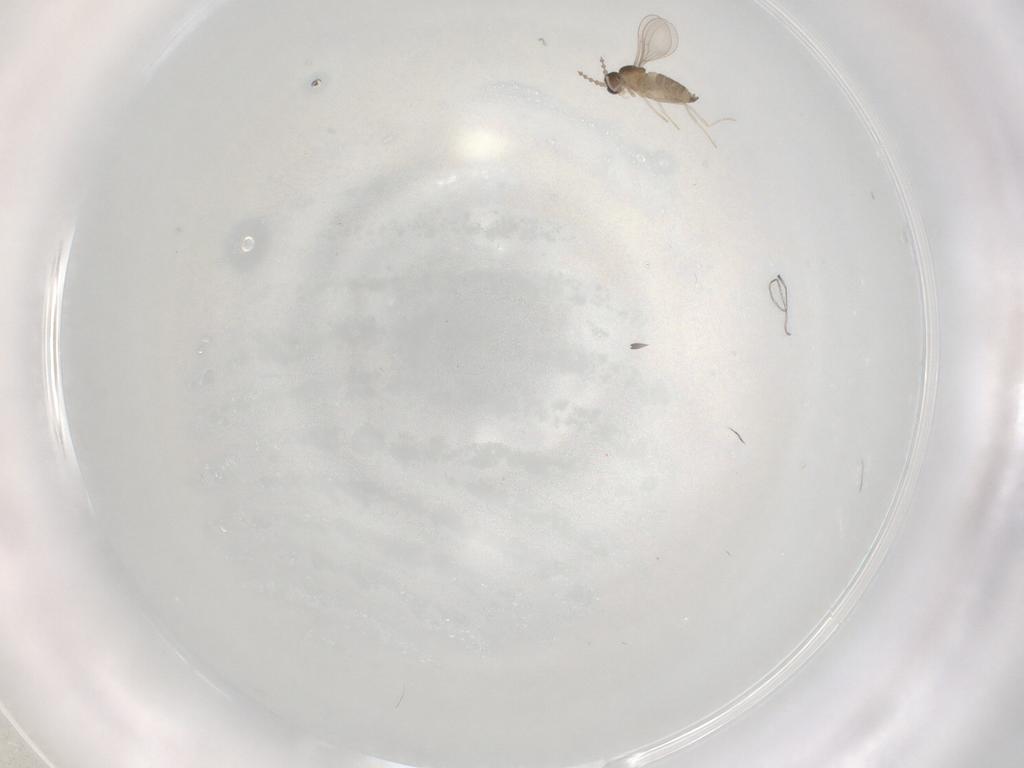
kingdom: Animalia
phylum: Arthropoda
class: Insecta
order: Diptera
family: Cecidomyiidae
